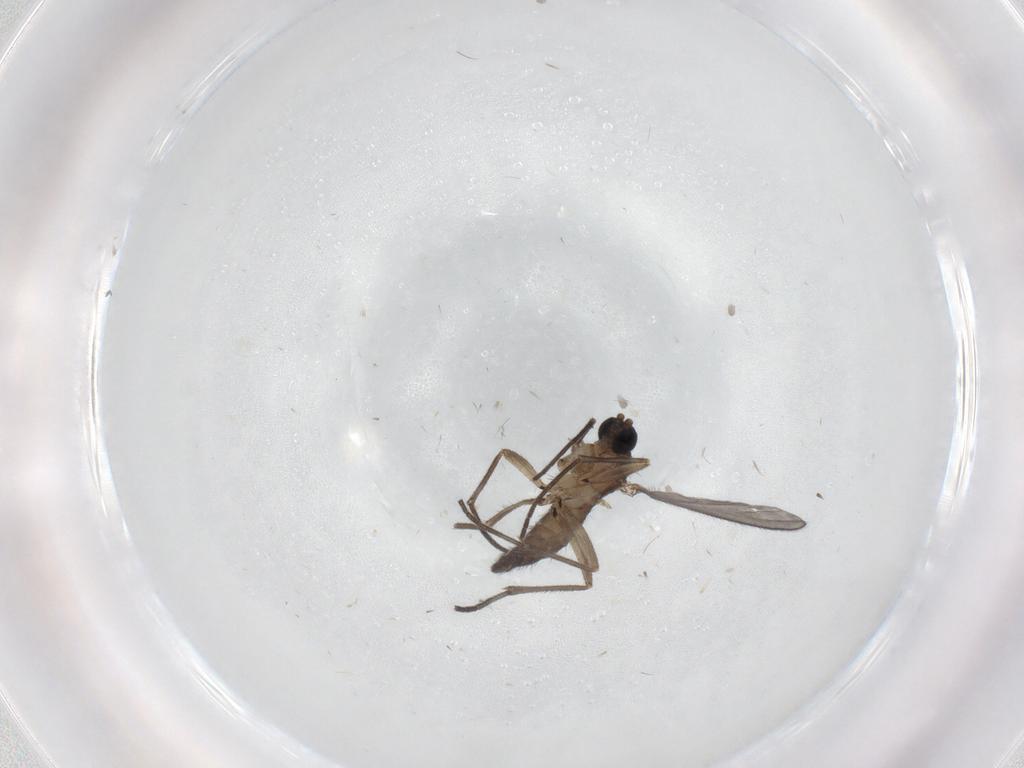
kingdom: Animalia
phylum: Arthropoda
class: Insecta
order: Diptera
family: Sciaridae
